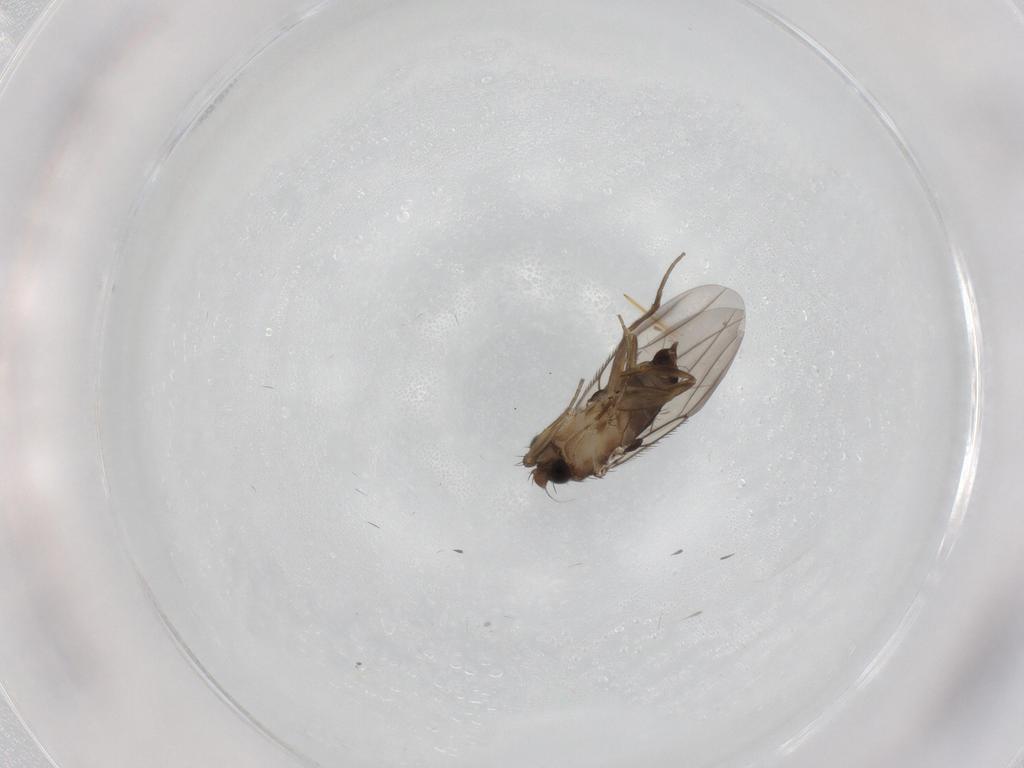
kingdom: Animalia
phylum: Arthropoda
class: Insecta
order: Diptera
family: Phoridae
